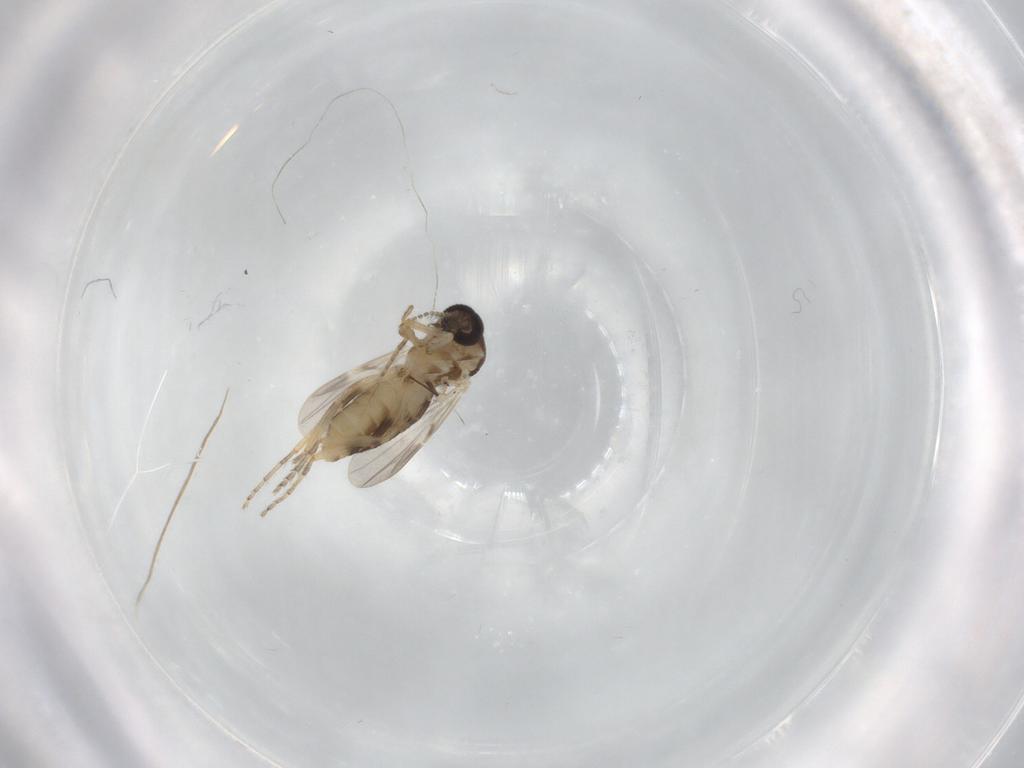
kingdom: Animalia
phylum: Arthropoda
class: Insecta
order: Diptera
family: Ceratopogonidae
